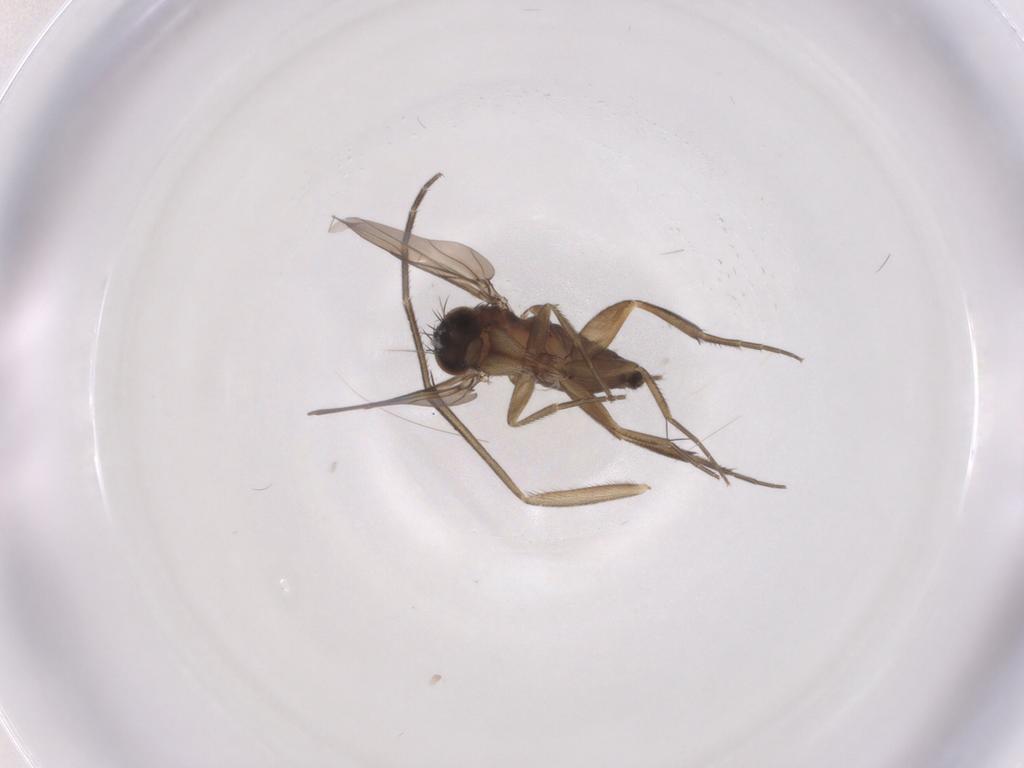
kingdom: Animalia
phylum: Arthropoda
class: Insecta
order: Diptera
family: Phoridae
